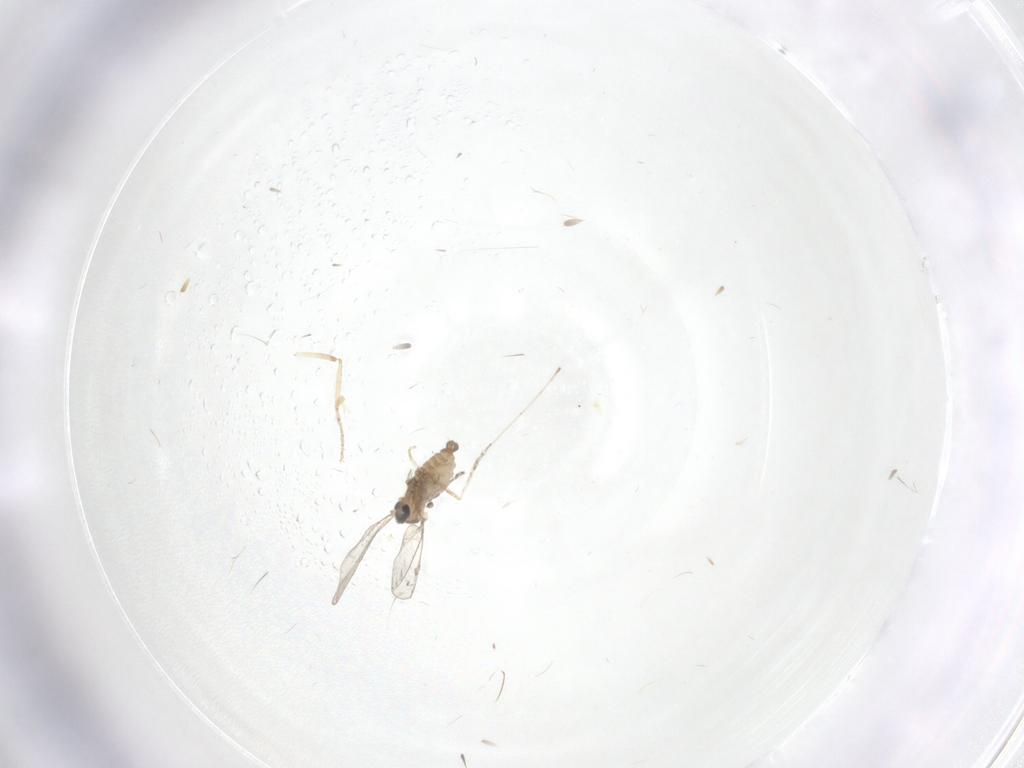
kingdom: Animalia
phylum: Arthropoda
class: Insecta
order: Diptera
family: Cecidomyiidae
